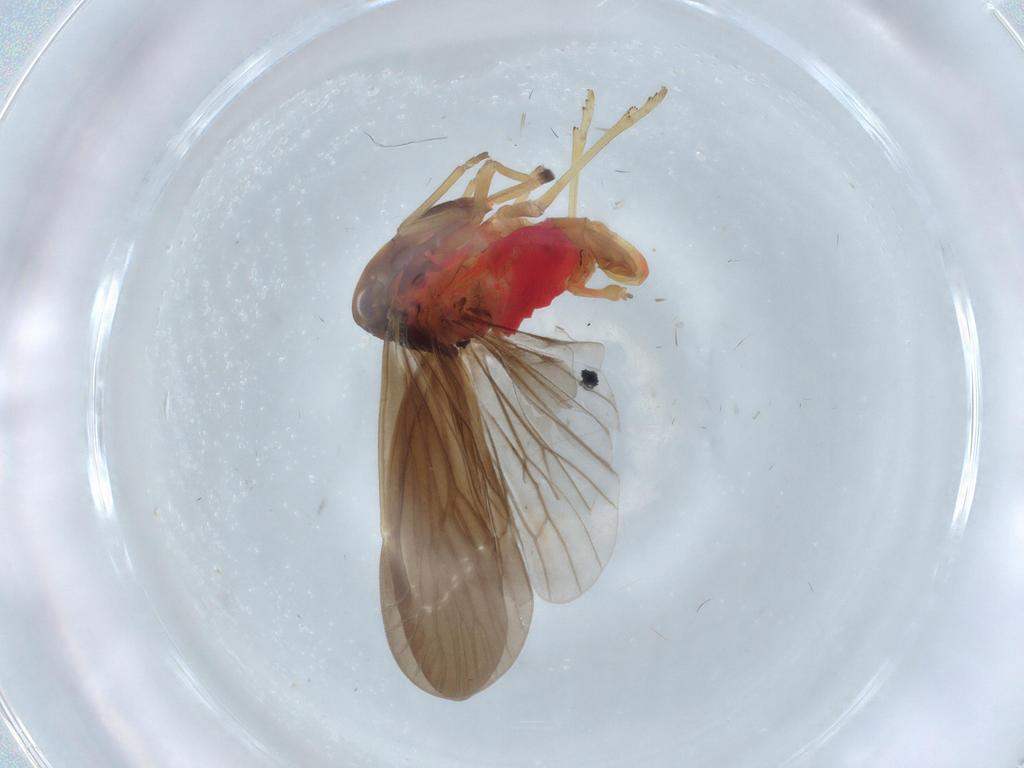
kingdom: Animalia
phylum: Arthropoda
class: Insecta
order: Hemiptera
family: Derbidae
